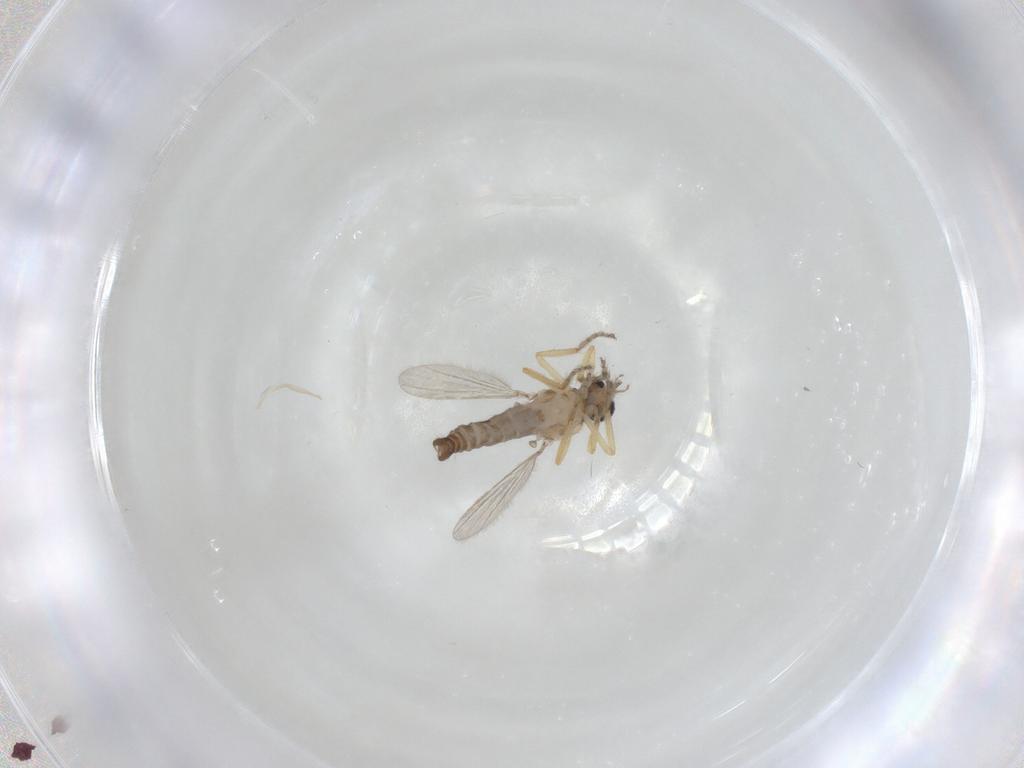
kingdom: Animalia
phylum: Arthropoda
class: Insecta
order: Diptera
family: Ceratopogonidae
